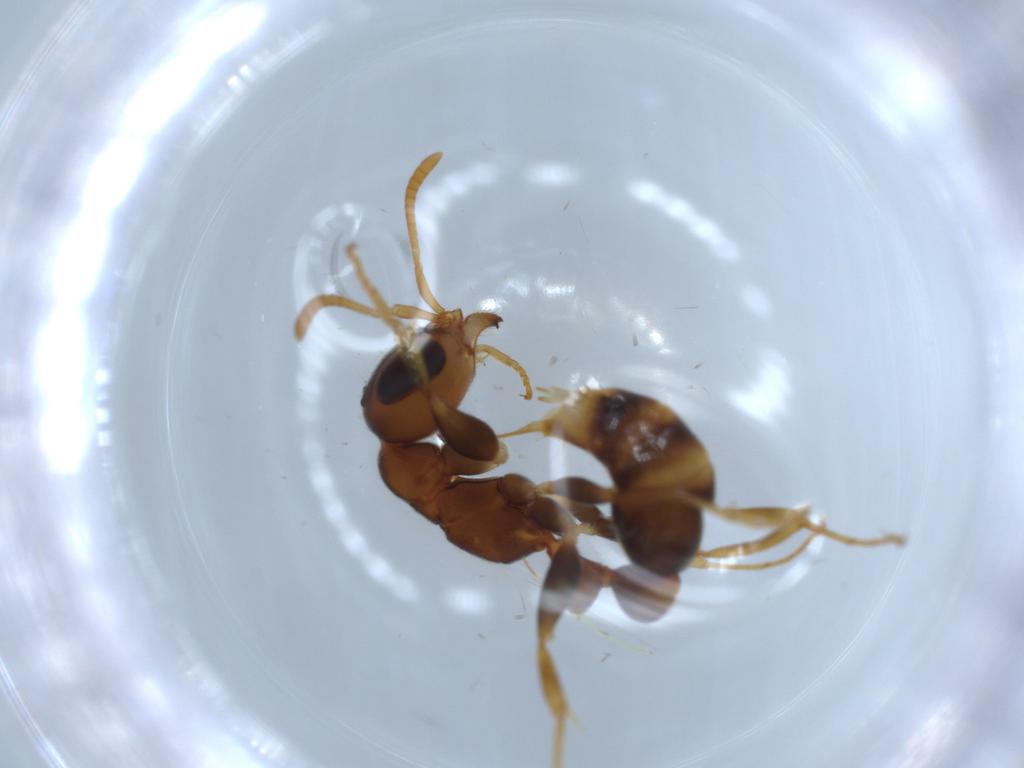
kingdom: Animalia
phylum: Arthropoda
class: Insecta
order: Hymenoptera
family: Formicidae
